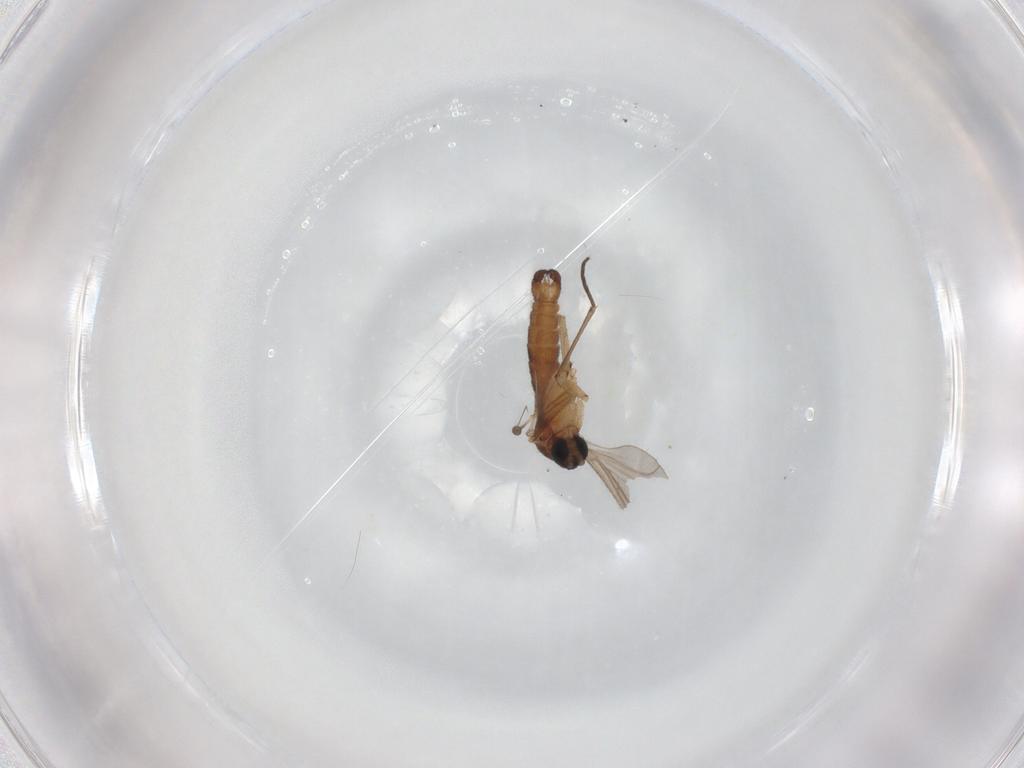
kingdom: Animalia
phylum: Arthropoda
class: Insecta
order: Diptera
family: Sciaridae
